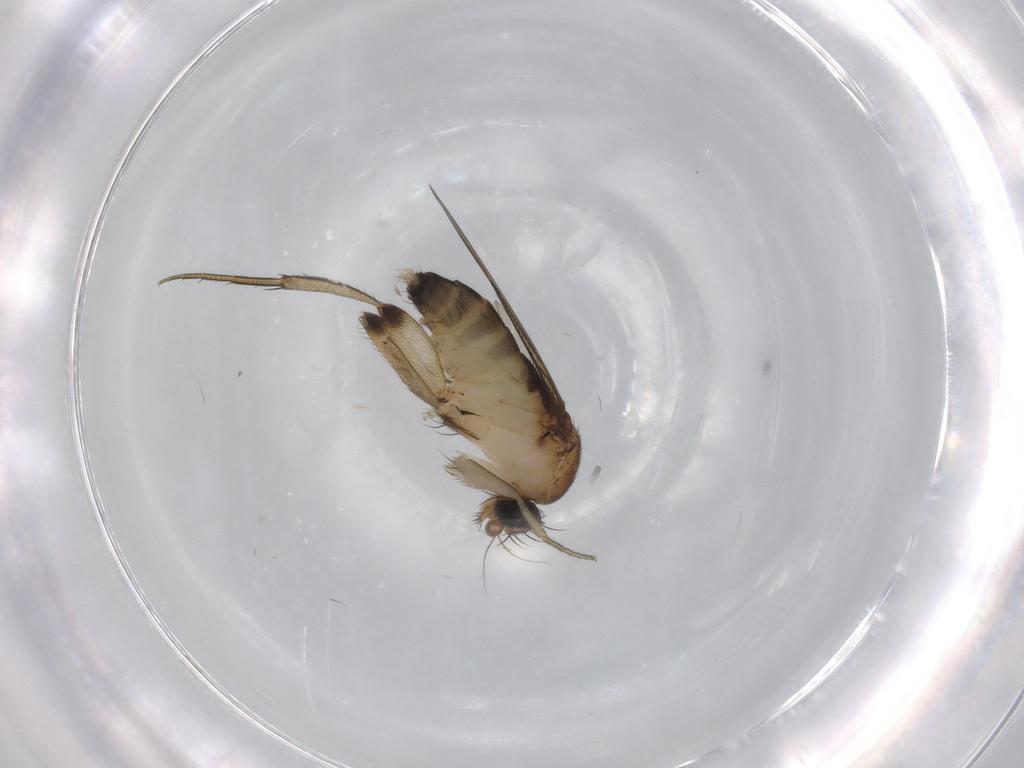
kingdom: Animalia
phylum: Arthropoda
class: Insecta
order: Diptera
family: Phoridae
